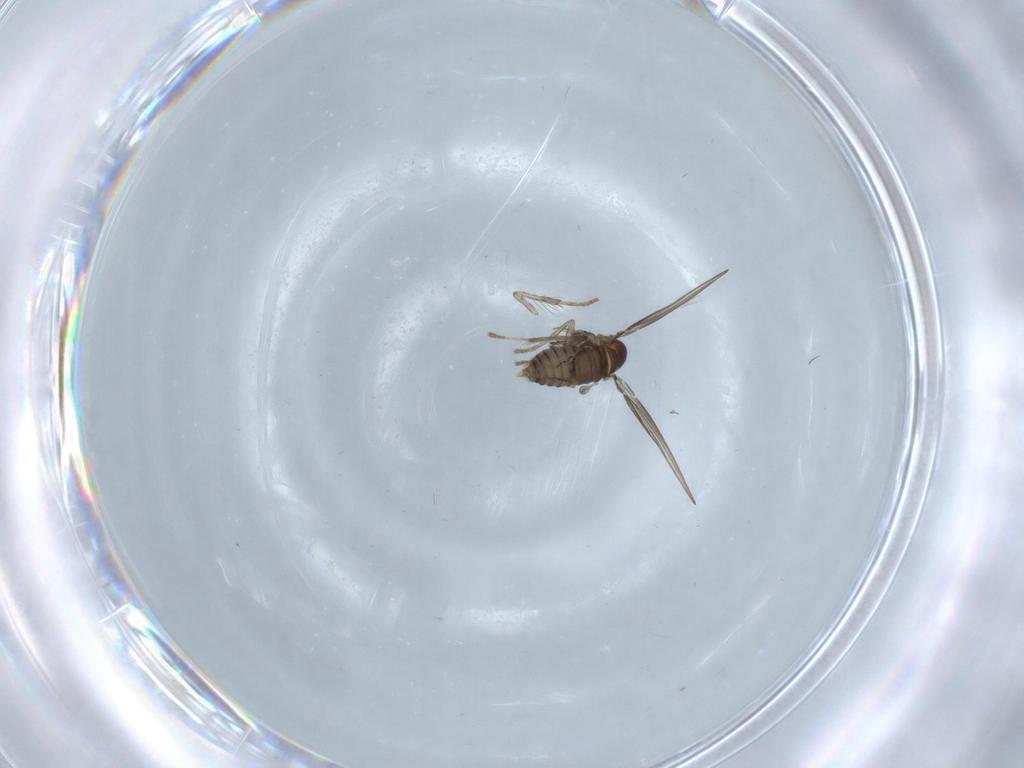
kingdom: Animalia
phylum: Arthropoda
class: Insecta
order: Diptera
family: Psychodidae
